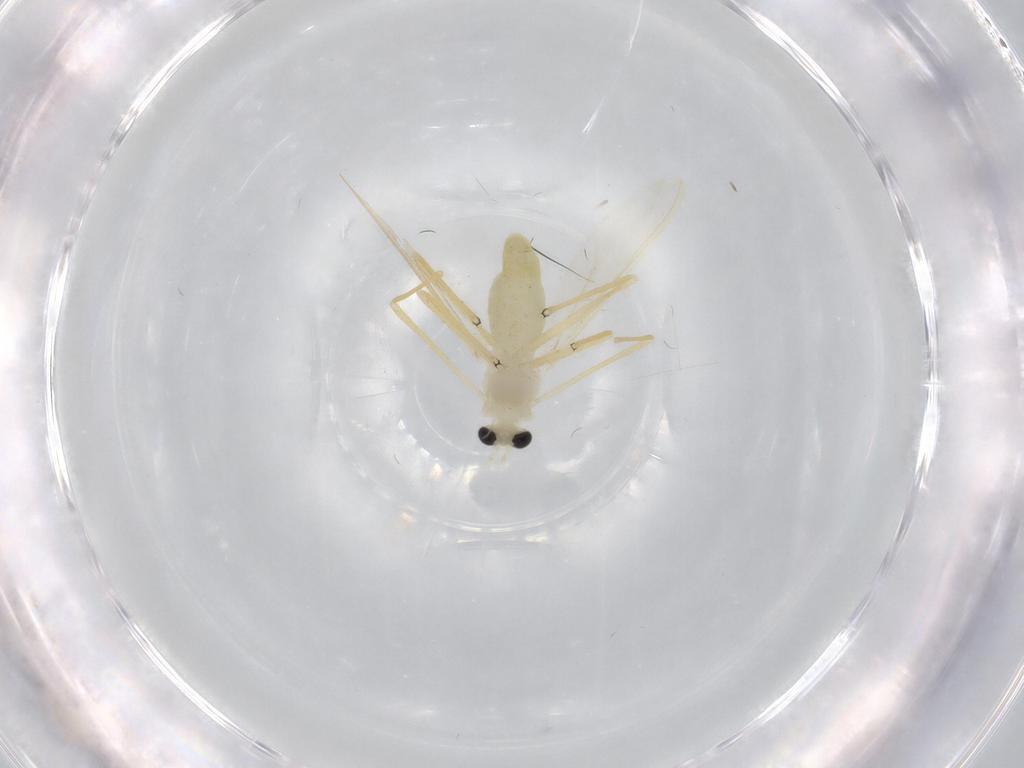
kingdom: Animalia
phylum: Arthropoda
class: Insecta
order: Diptera
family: Chironomidae
